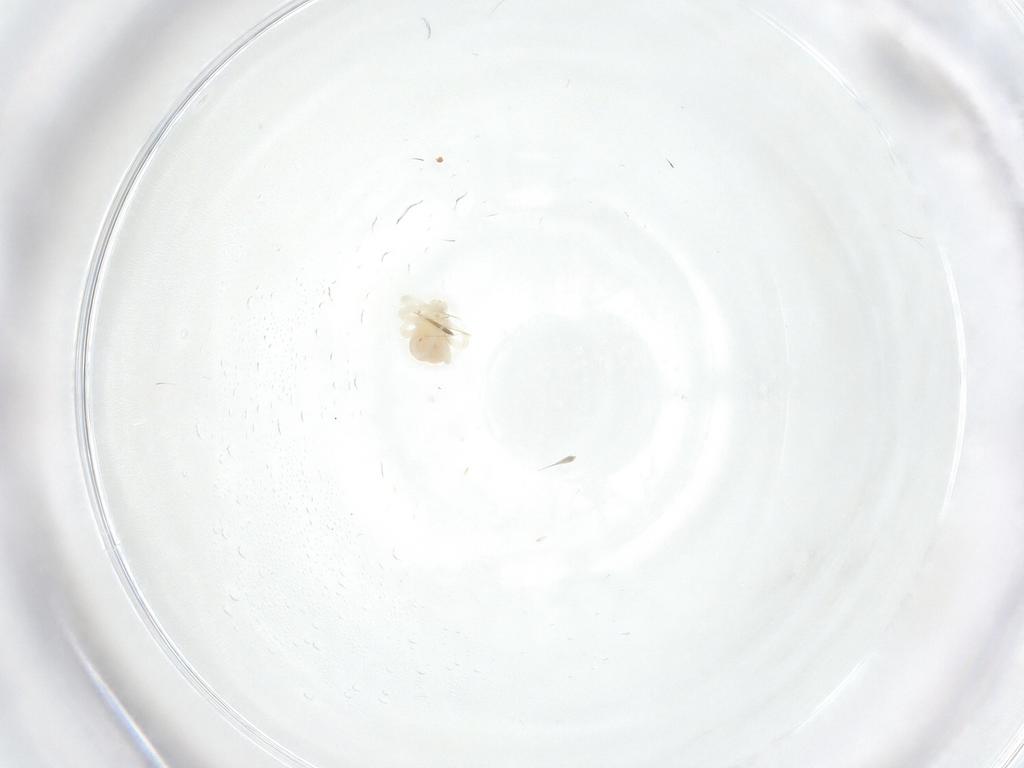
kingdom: Animalia
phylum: Arthropoda
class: Arachnida
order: Trombidiformes
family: Anystidae
